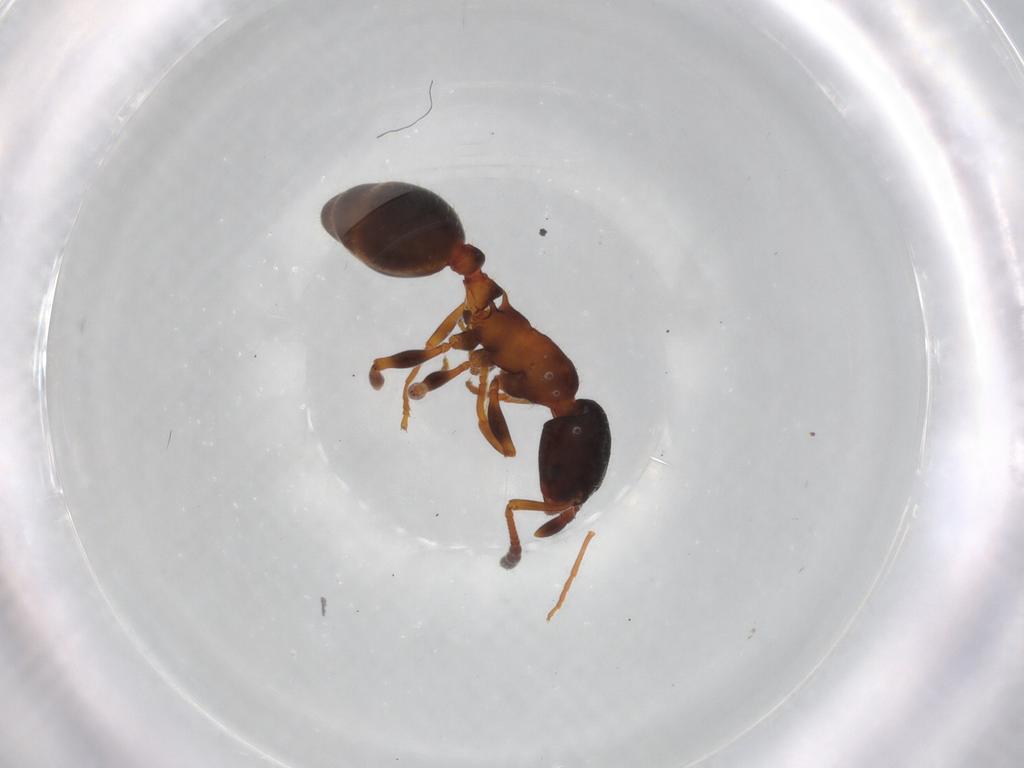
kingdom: Animalia
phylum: Arthropoda
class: Insecta
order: Hymenoptera
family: Formicidae
